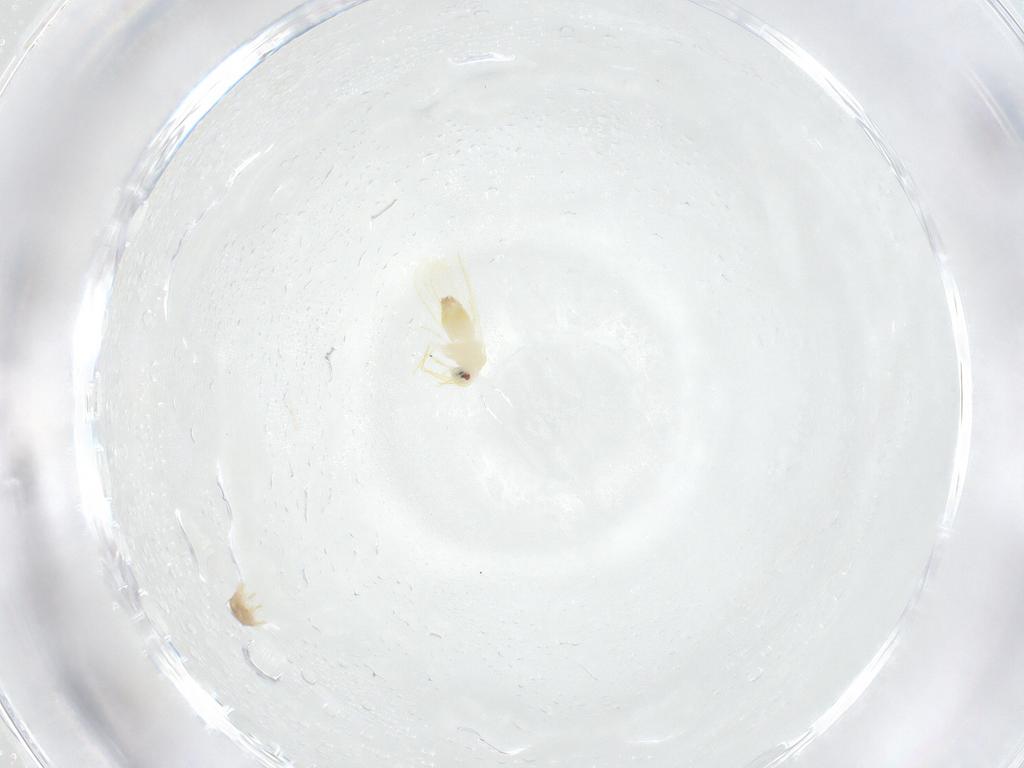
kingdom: Animalia
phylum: Arthropoda
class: Insecta
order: Hemiptera
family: Aleyrodidae
